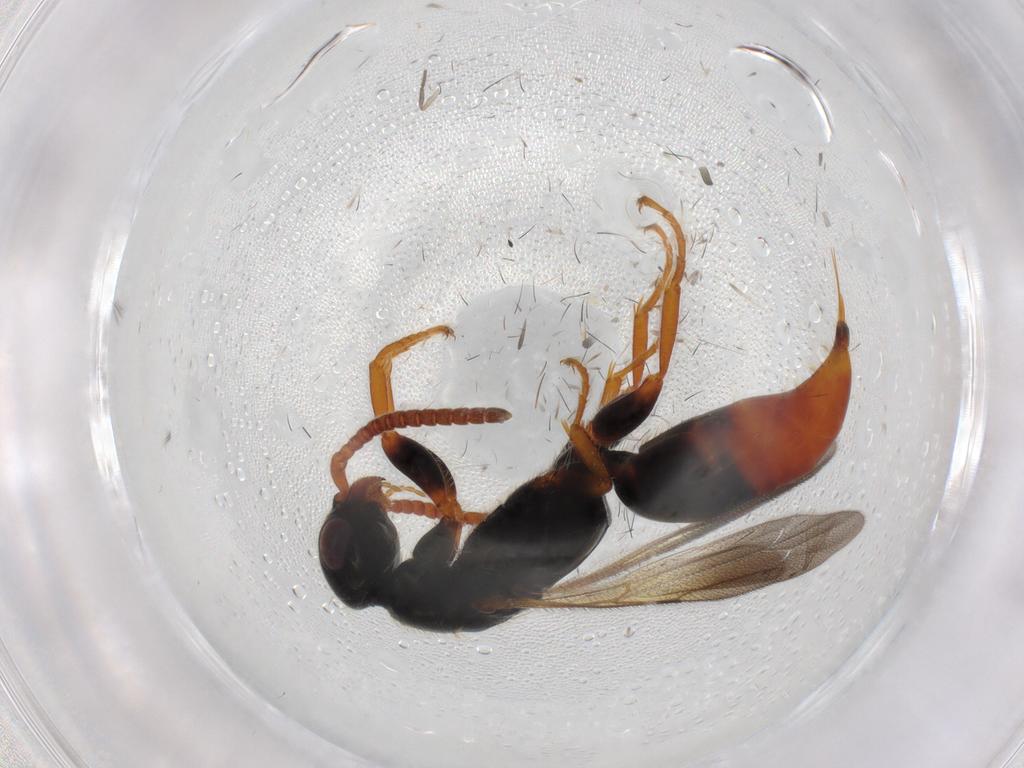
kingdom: Animalia
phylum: Arthropoda
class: Insecta
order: Hymenoptera
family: Bethylidae
